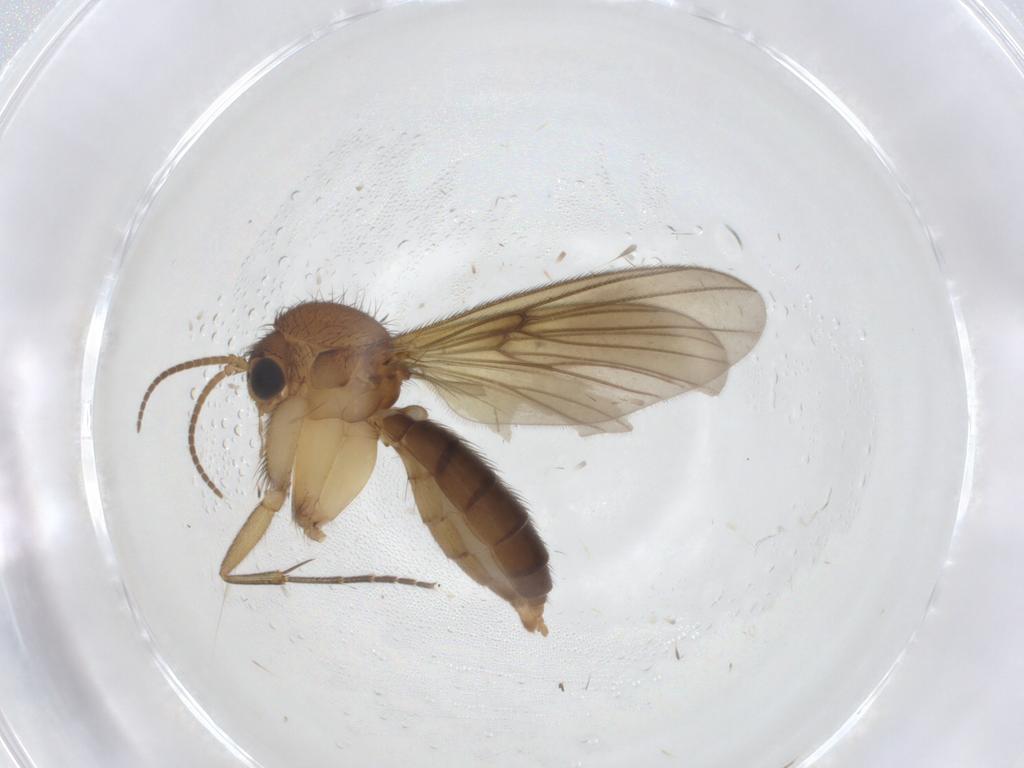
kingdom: Animalia
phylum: Arthropoda
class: Insecta
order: Diptera
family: Mycetophilidae
